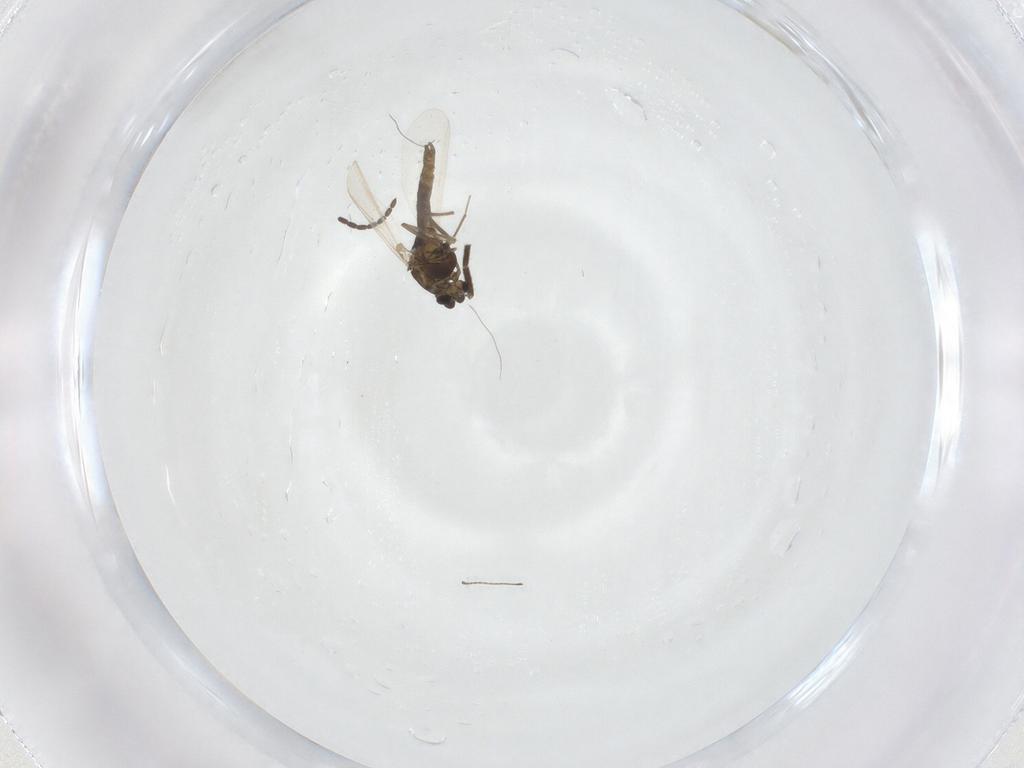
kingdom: Animalia
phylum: Arthropoda
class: Insecta
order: Diptera
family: Chironomidae
